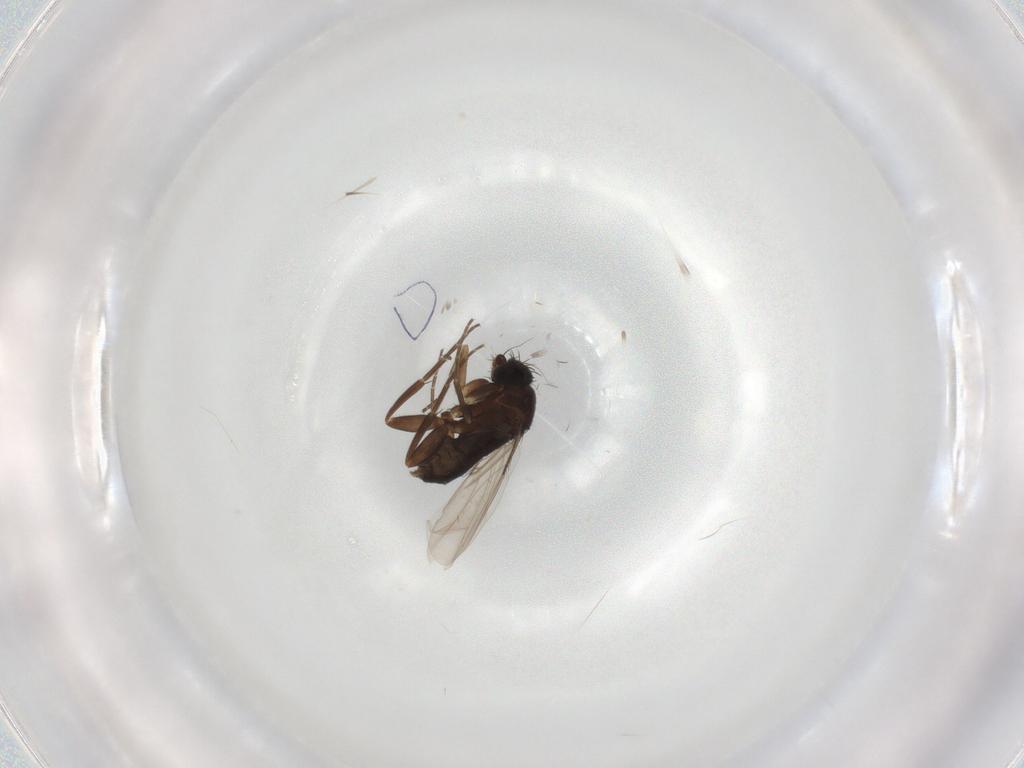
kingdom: Animalia
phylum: Arthropoda
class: Insecta
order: Diptera
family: Phoridae
